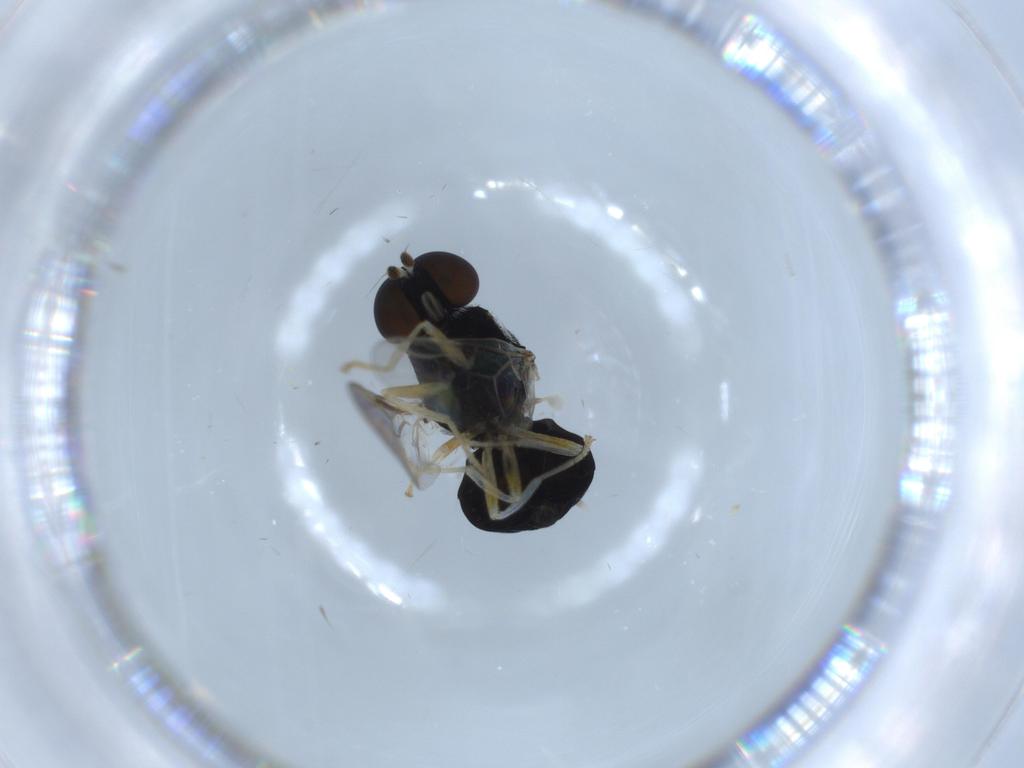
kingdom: Animalia
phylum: Arthropoda
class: Insecta
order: Diptera
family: Stratiomyidae
